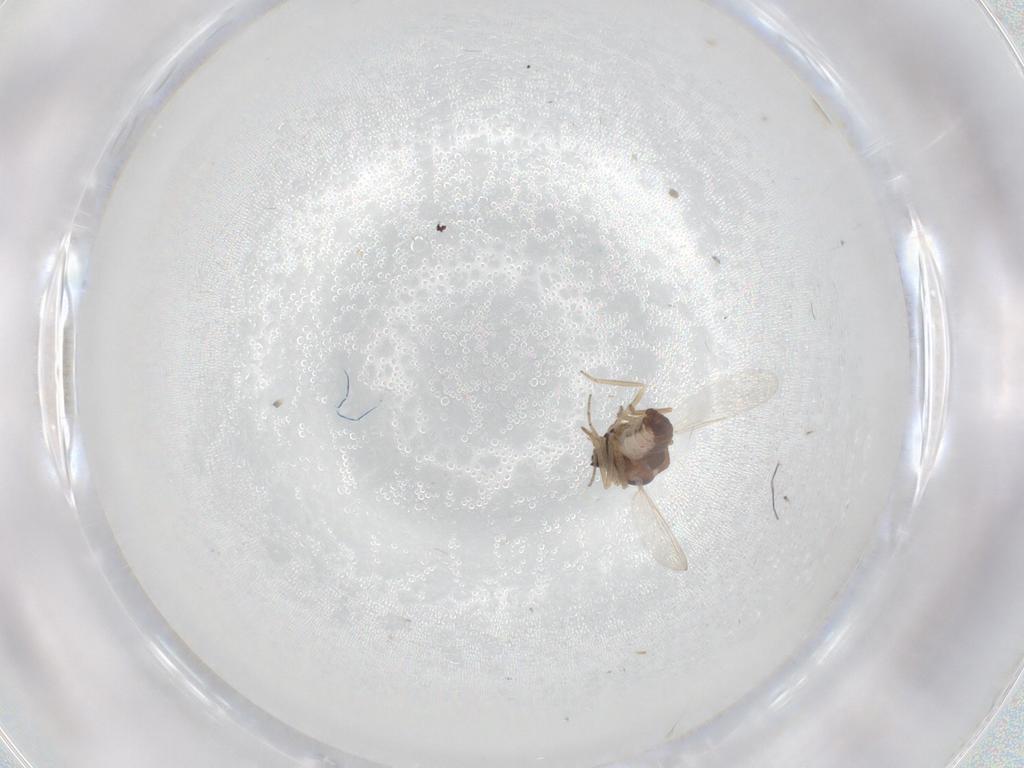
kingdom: Animalia
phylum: Arthropoda
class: Insecta
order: Diptera
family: Ceratopogonidae
